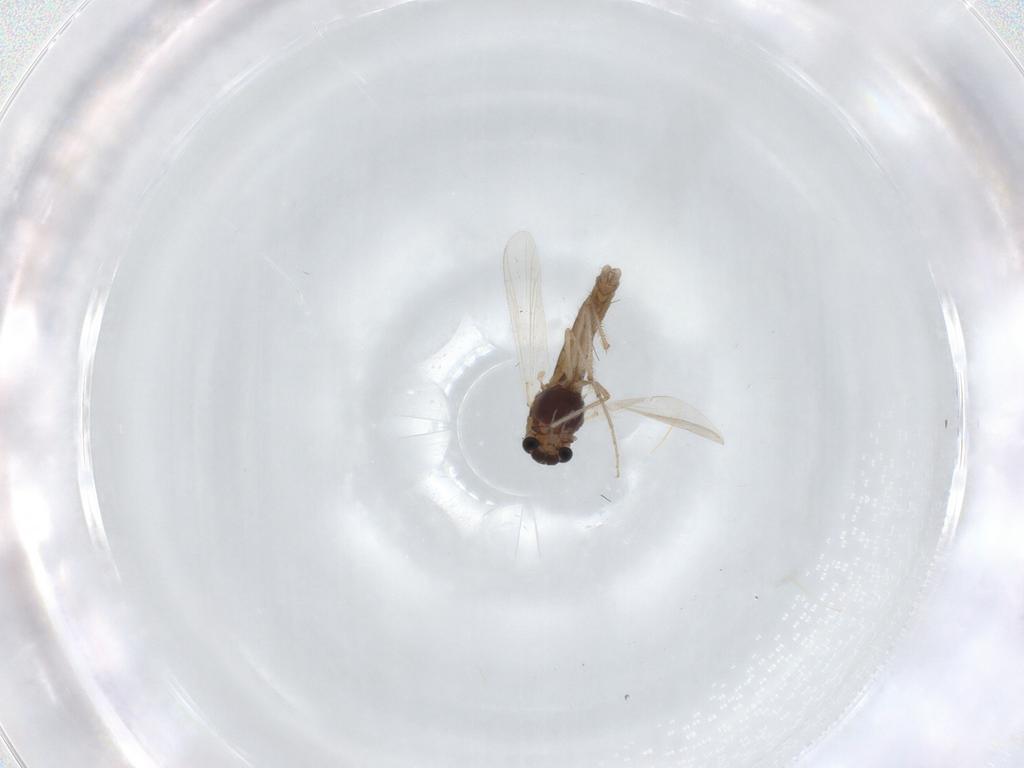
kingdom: Animalia
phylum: Arthropoda
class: Insecta
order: Diptera
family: Chironomidae
